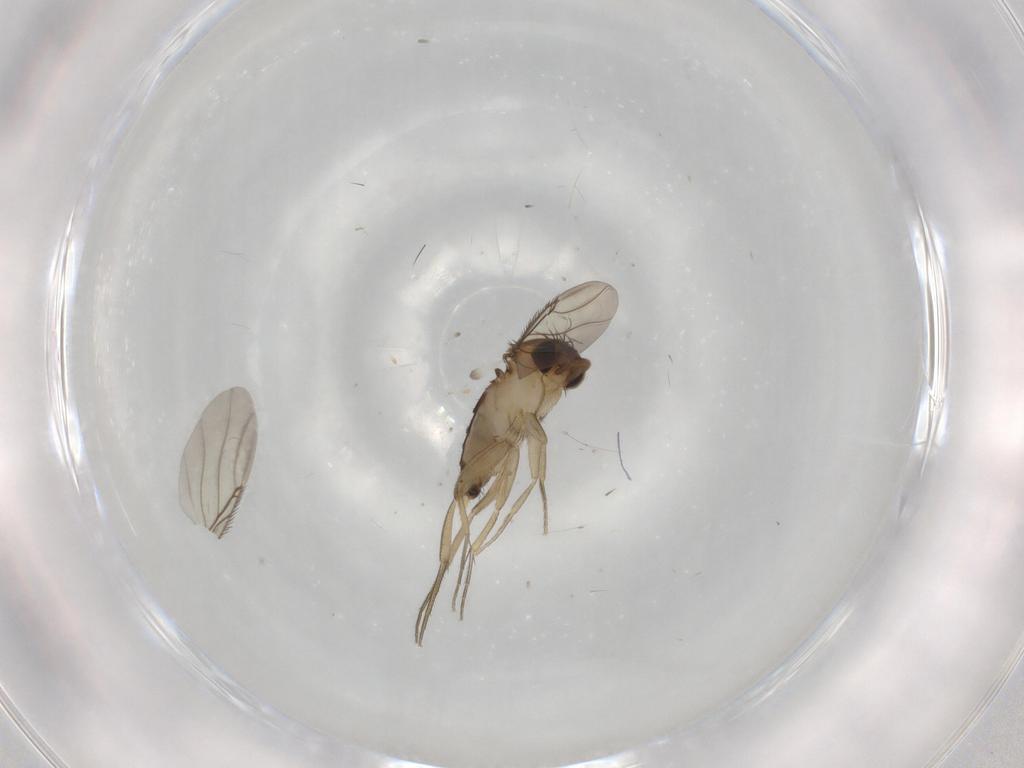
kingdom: Animalia
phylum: Arthropoda
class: Insecta
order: Diptera
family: Phoridae
